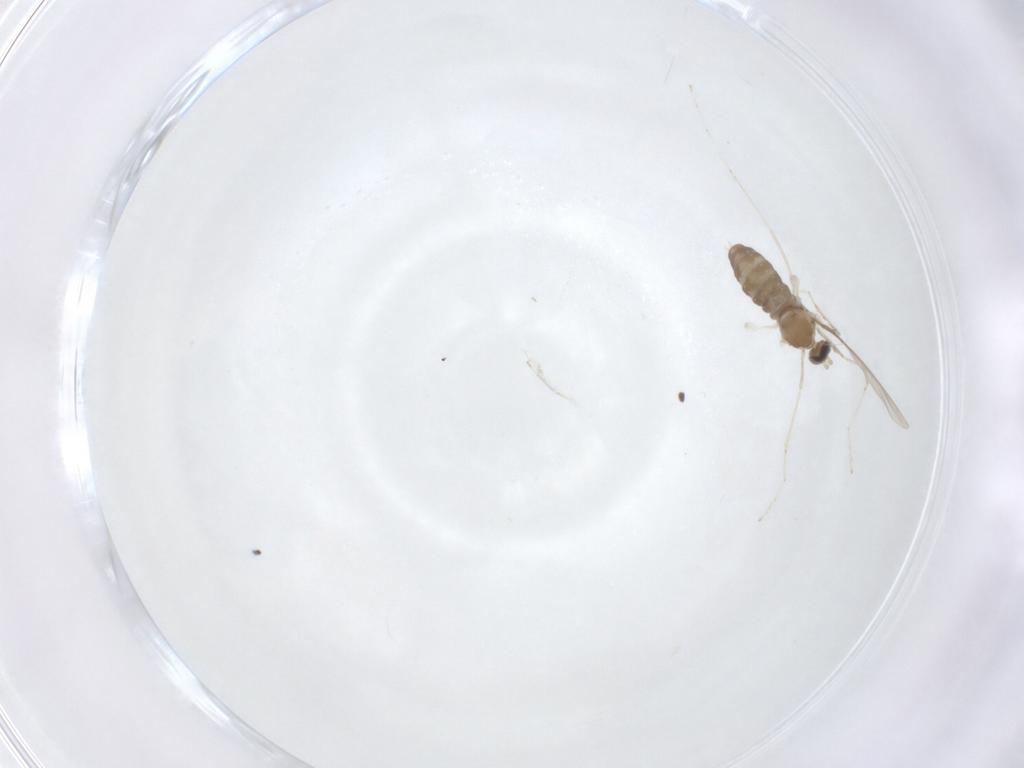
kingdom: Animalia
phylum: Arthropoda
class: Insecta
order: Diptera
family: Cecidomyiidae
